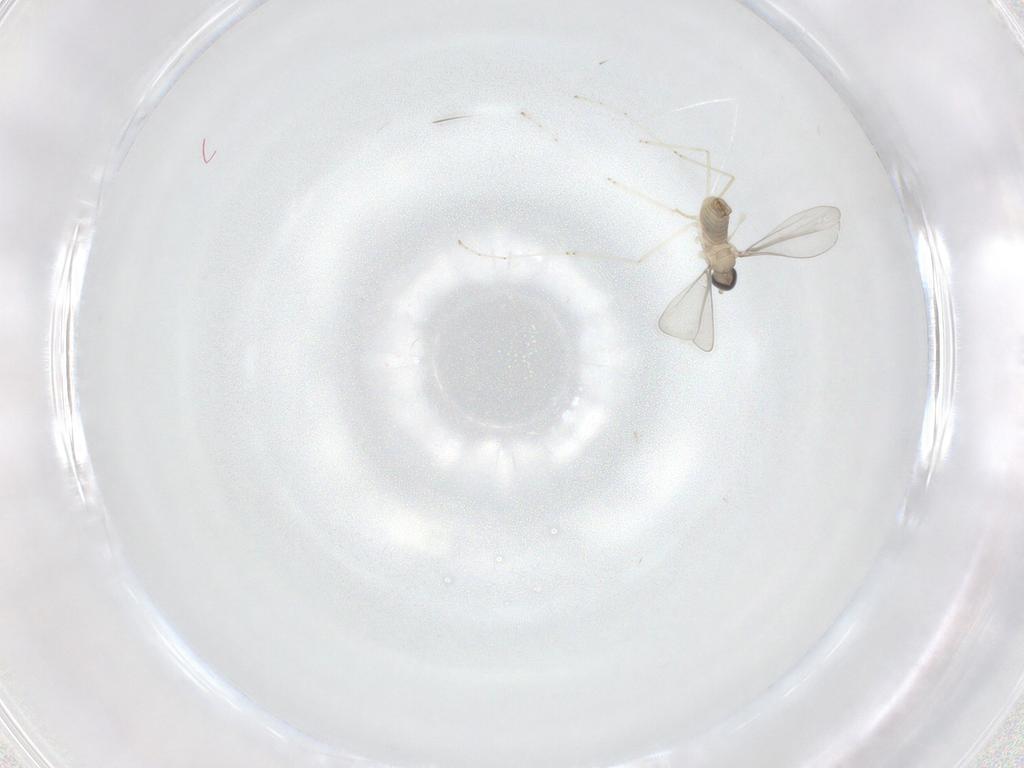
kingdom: Animalia
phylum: Arthropoda
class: Insecta
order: Diptera
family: Cecidomyiidae
